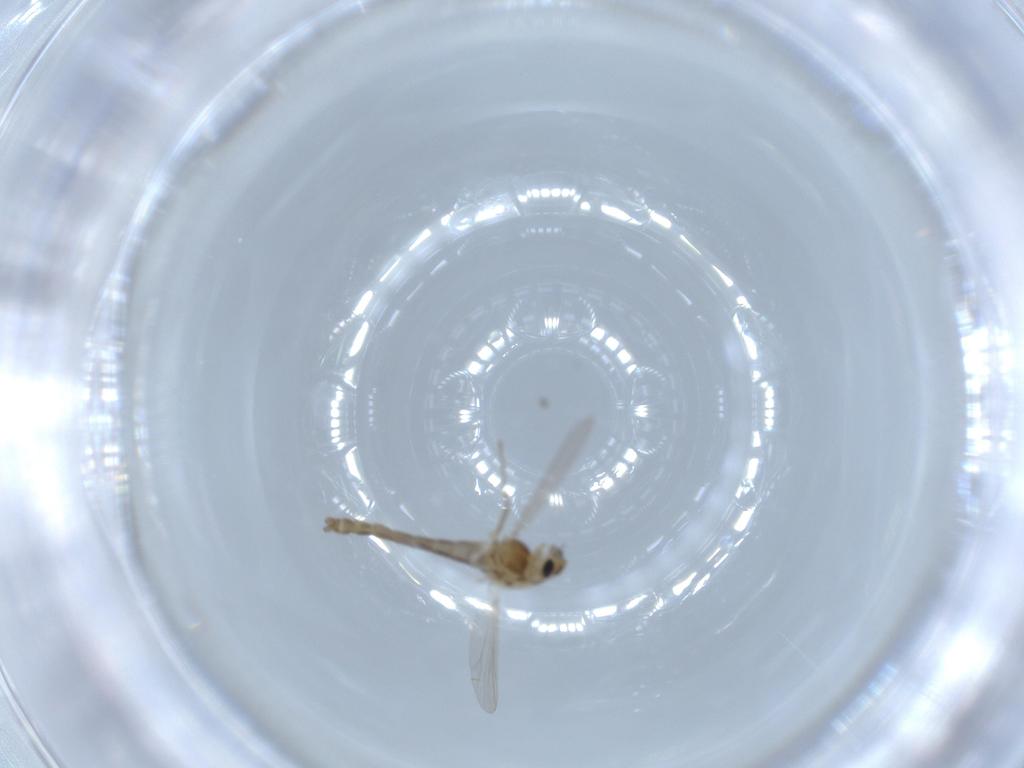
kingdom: Animalia
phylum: Arthropoda
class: Insecta
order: Diptera
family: Chironomidae
